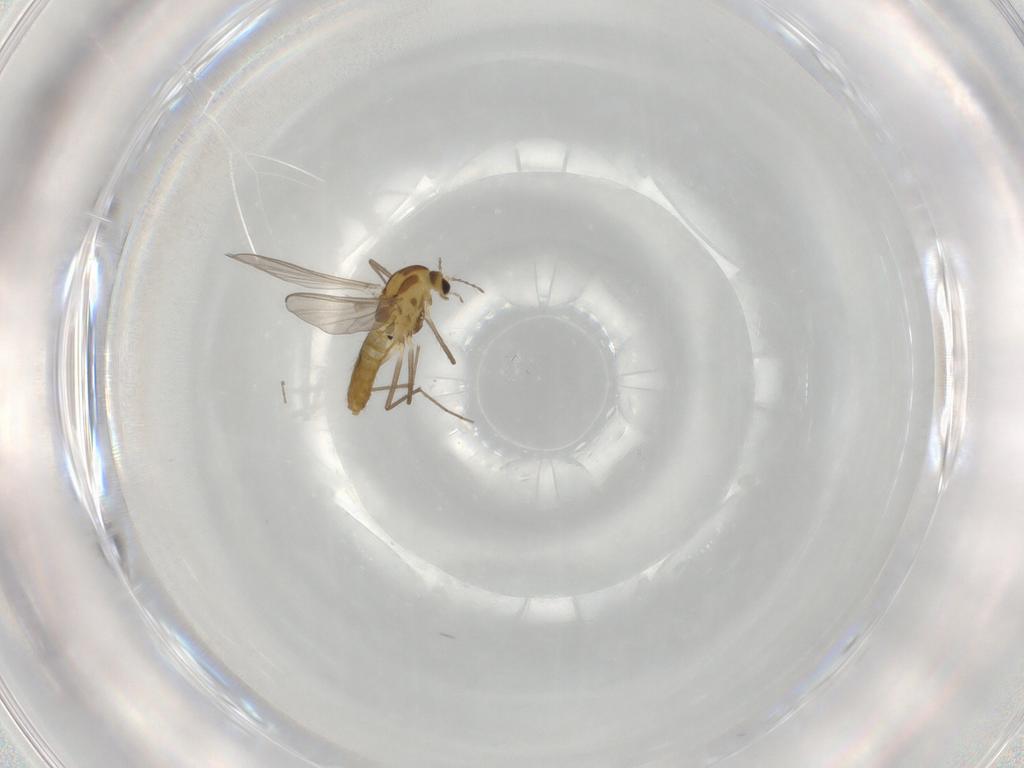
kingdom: Animalia
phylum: Arthropoda
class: Insecta
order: Diptera
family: Chironomidae
